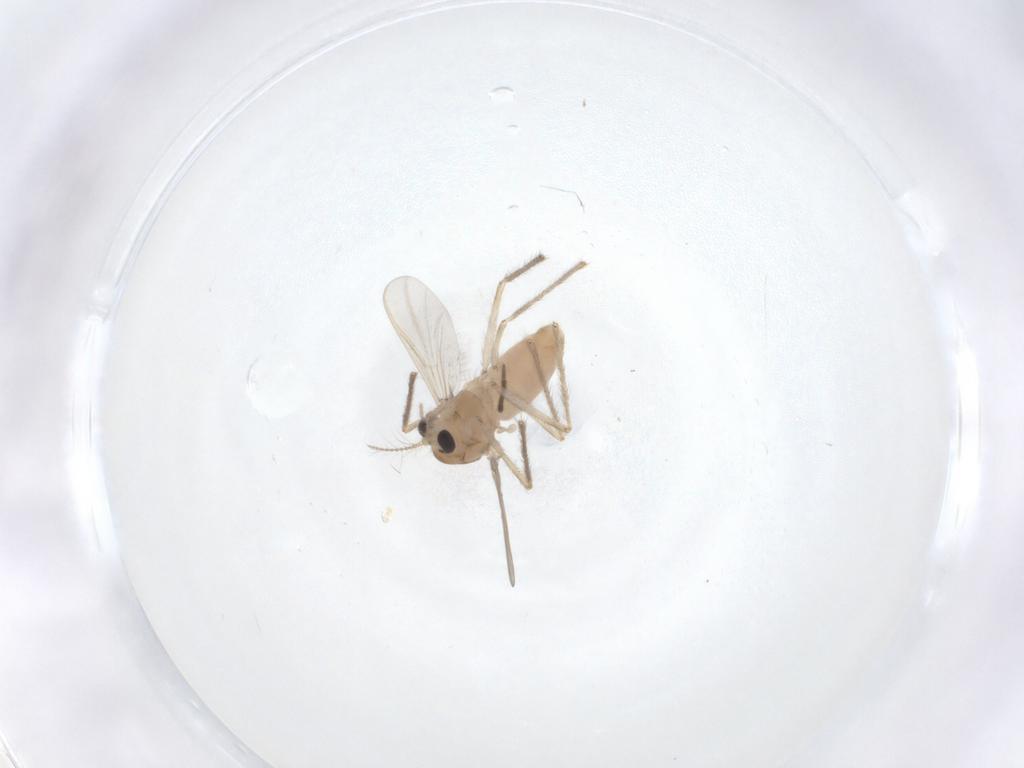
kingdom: Animalia
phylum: Arthropoda
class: Insecta
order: Diptera
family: Chironomidae
